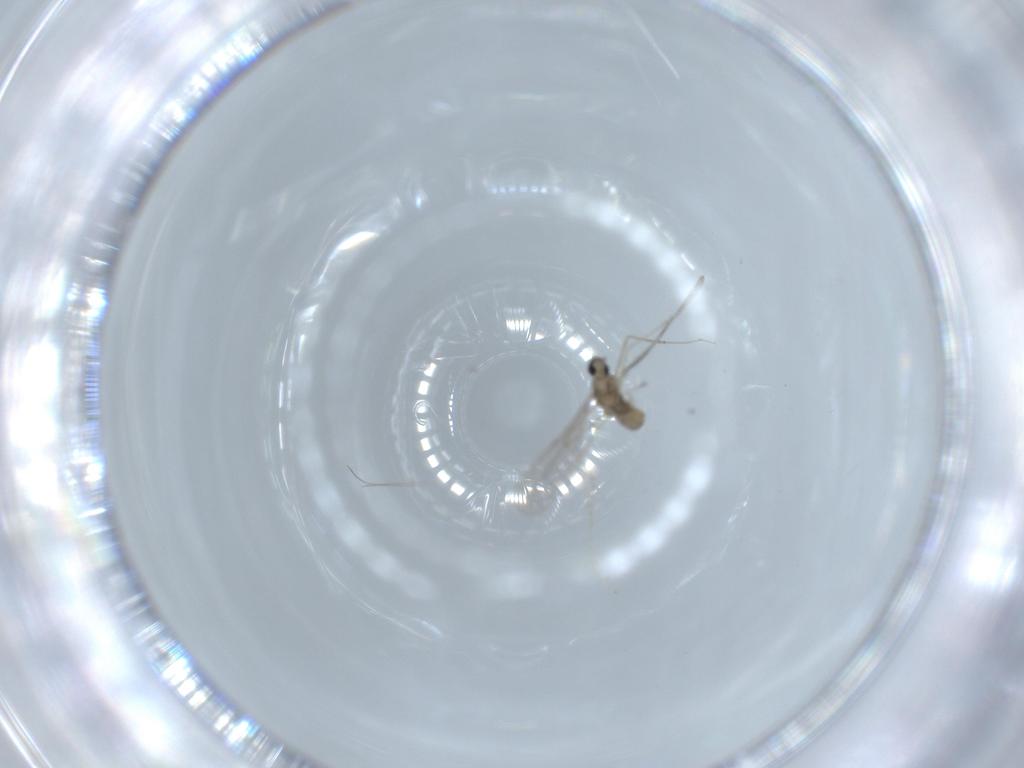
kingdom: Animalia
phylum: Arthropoda
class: Insecta
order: Diptera
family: Cecidomyiidae
